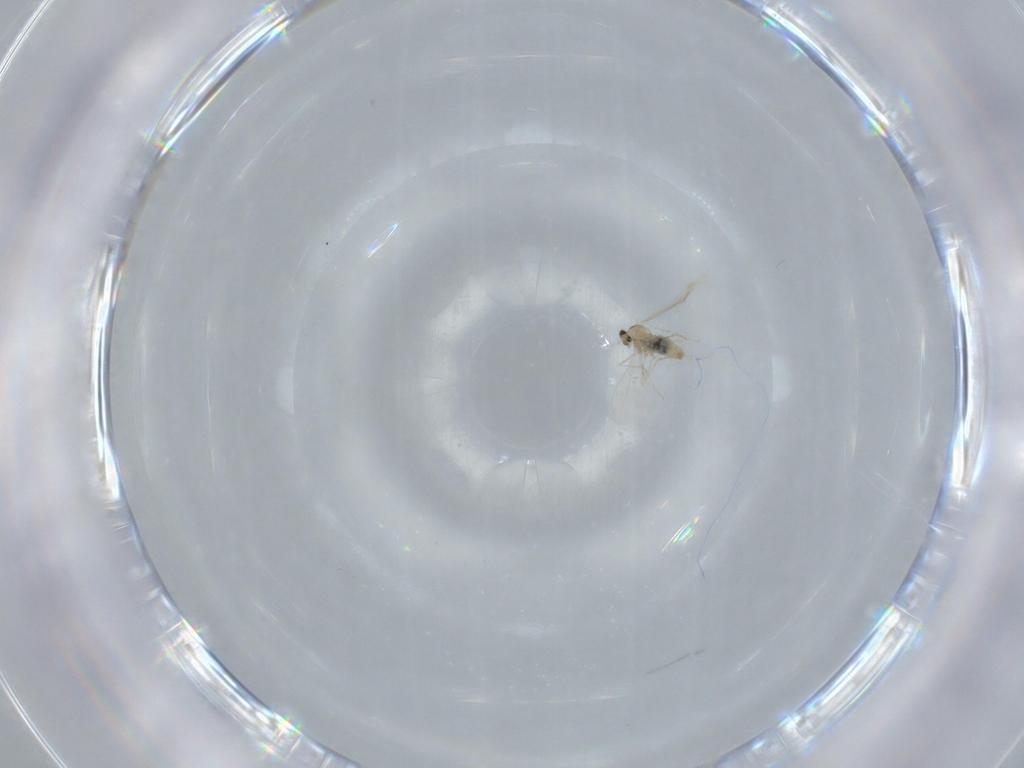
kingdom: Animalia
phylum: Arthropoda
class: Insecta
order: Diptera
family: Cecidomyiidae
